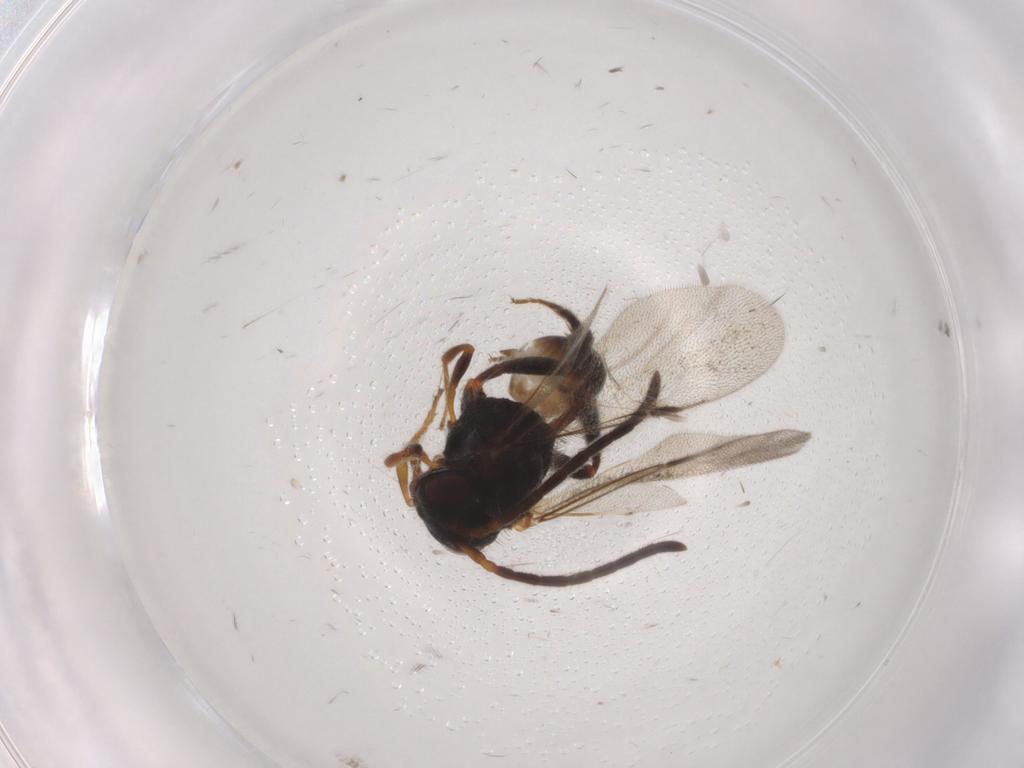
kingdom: Animalia
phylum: Arthropoda
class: Insecta
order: Hymenoptera
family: Evaniidae
